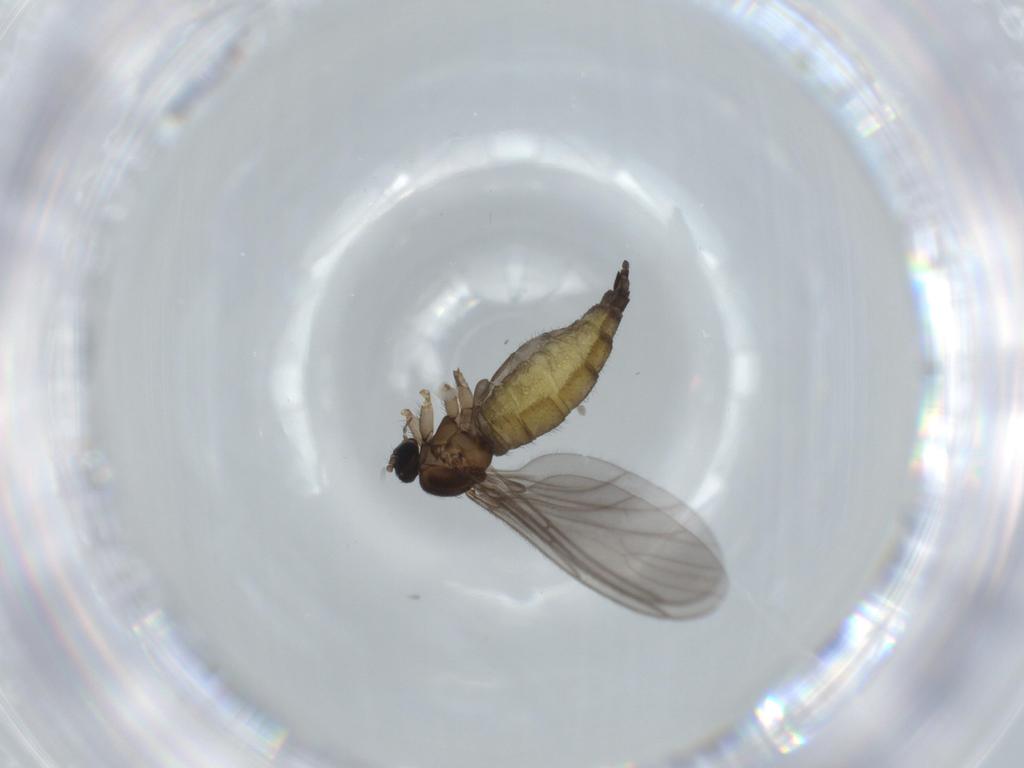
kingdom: Animalia
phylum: Arthropoda
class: Insecta
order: Diptera
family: Sciaridae
